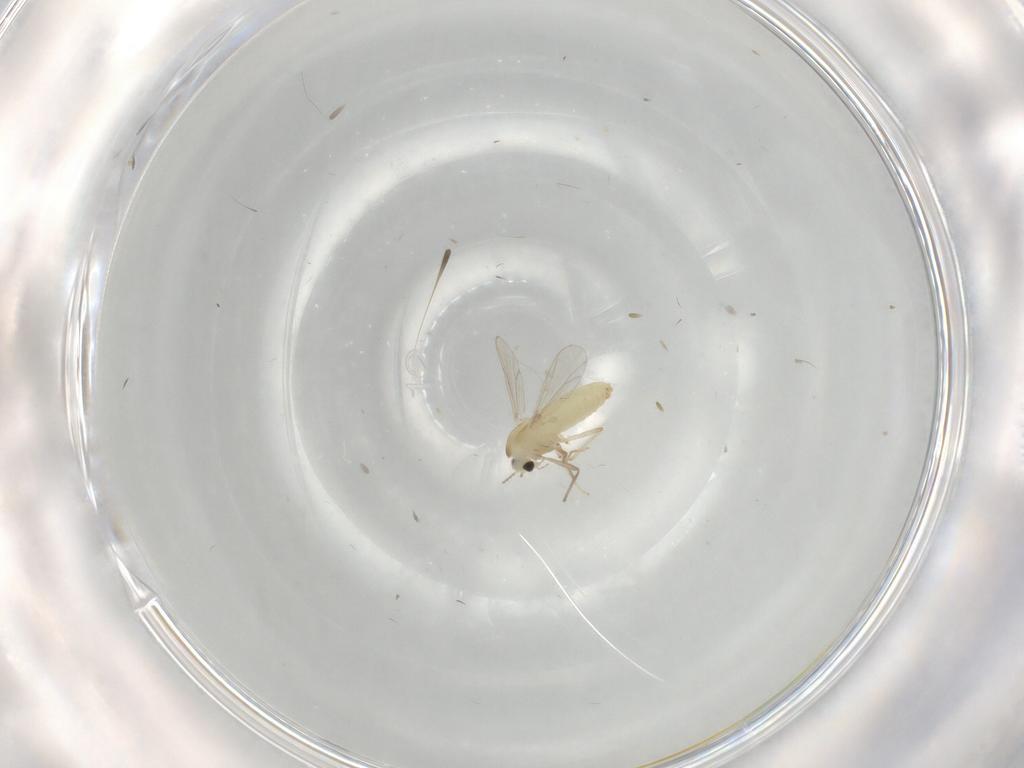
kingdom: Animalia
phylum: Arthropoda
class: Insecta
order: Diptera
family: Chironomidae
